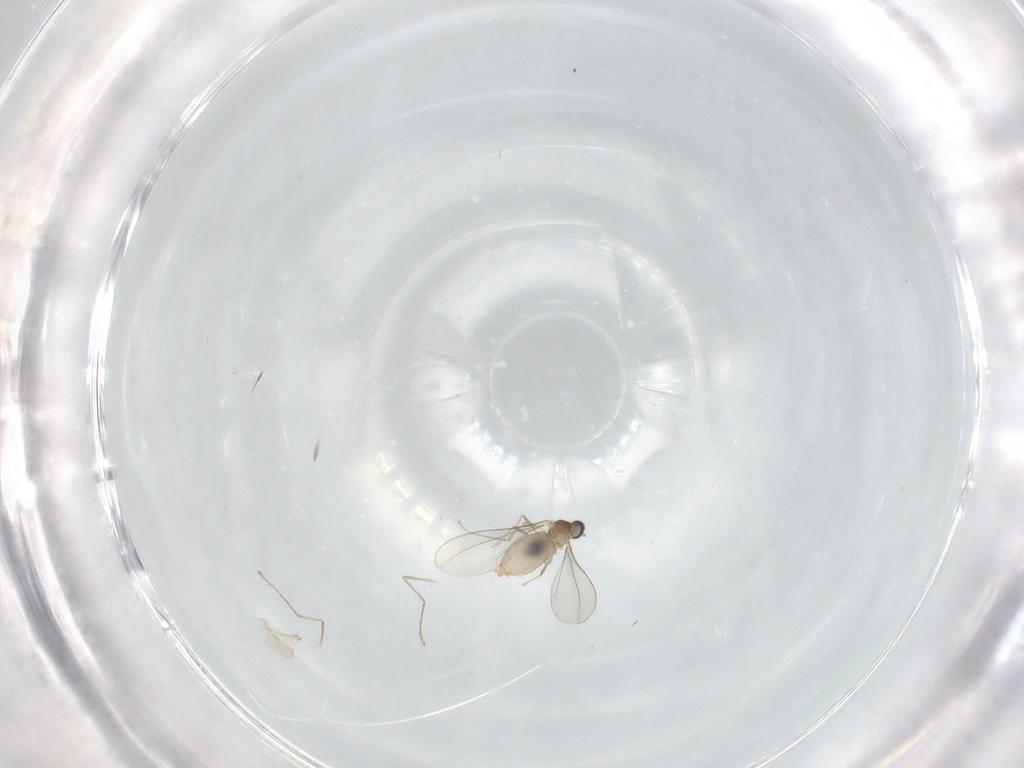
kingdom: Animalia
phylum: Arthropoda
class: Insecta
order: Diptera
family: Cecidomyiidae
